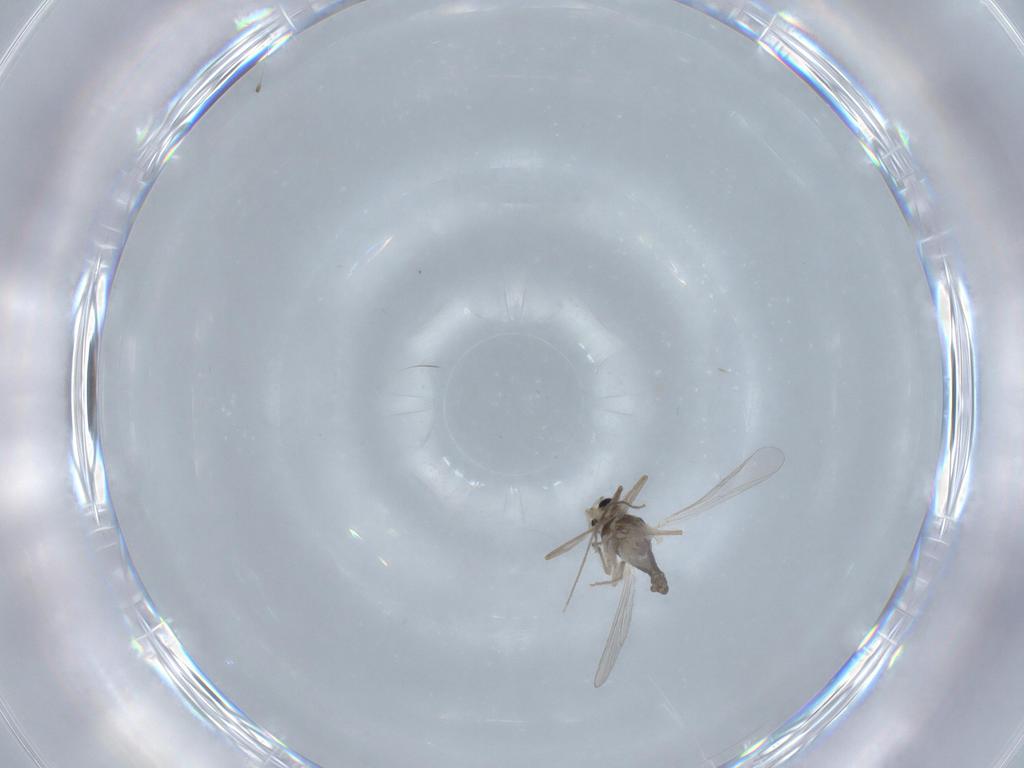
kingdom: Animalia
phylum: Arthropoda
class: Insecta
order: Diptera
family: Chironomidae
